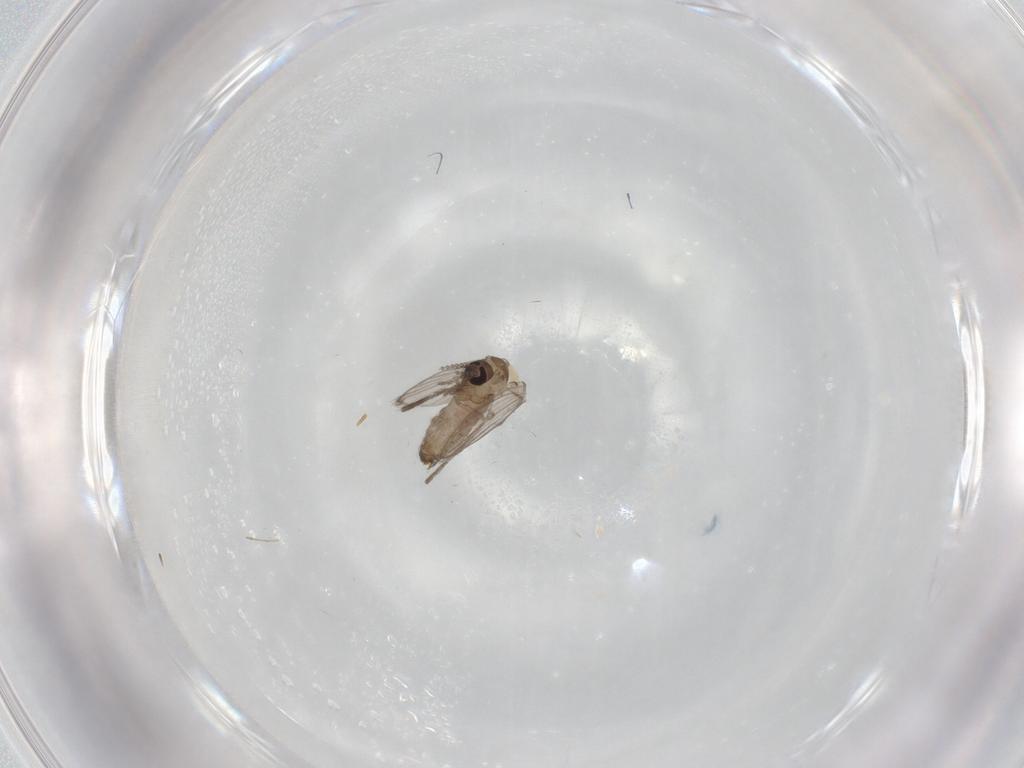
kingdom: Animalia
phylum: Arthropoda
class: Insecta
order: Diptera
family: Psychodidae
